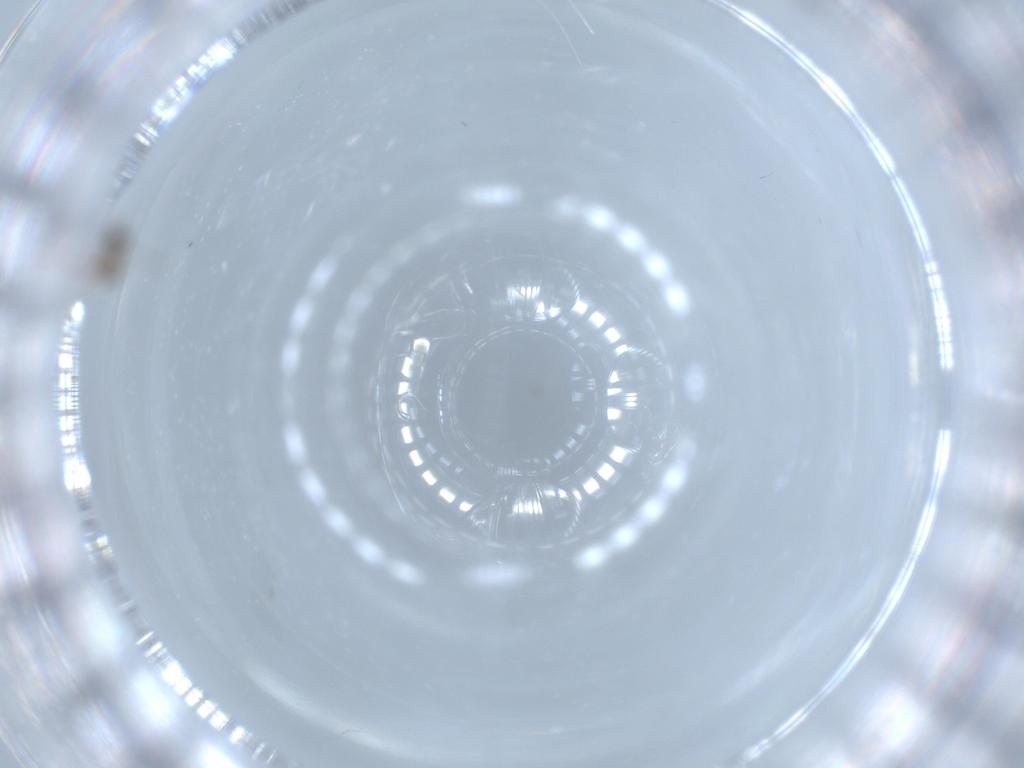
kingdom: Animalia
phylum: Arthropoda
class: Insecta
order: Diptera
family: Cecidomyiidae
